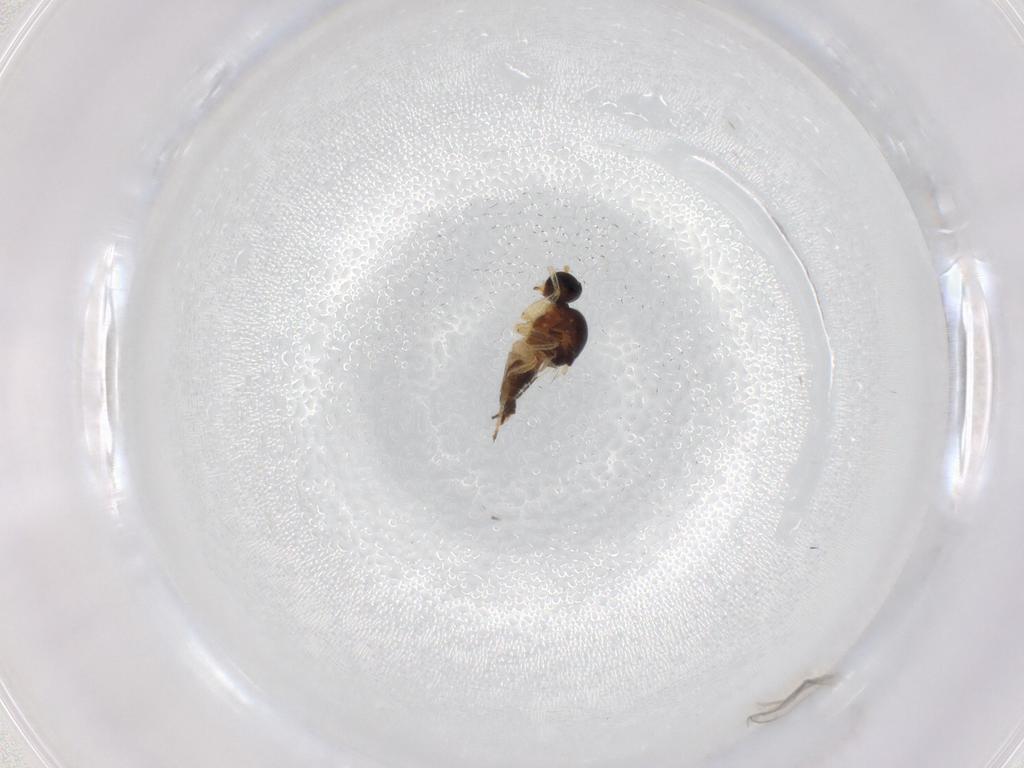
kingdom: Animalia
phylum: Arthropoda
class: Insecta
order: Diptera
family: Hybotidae
